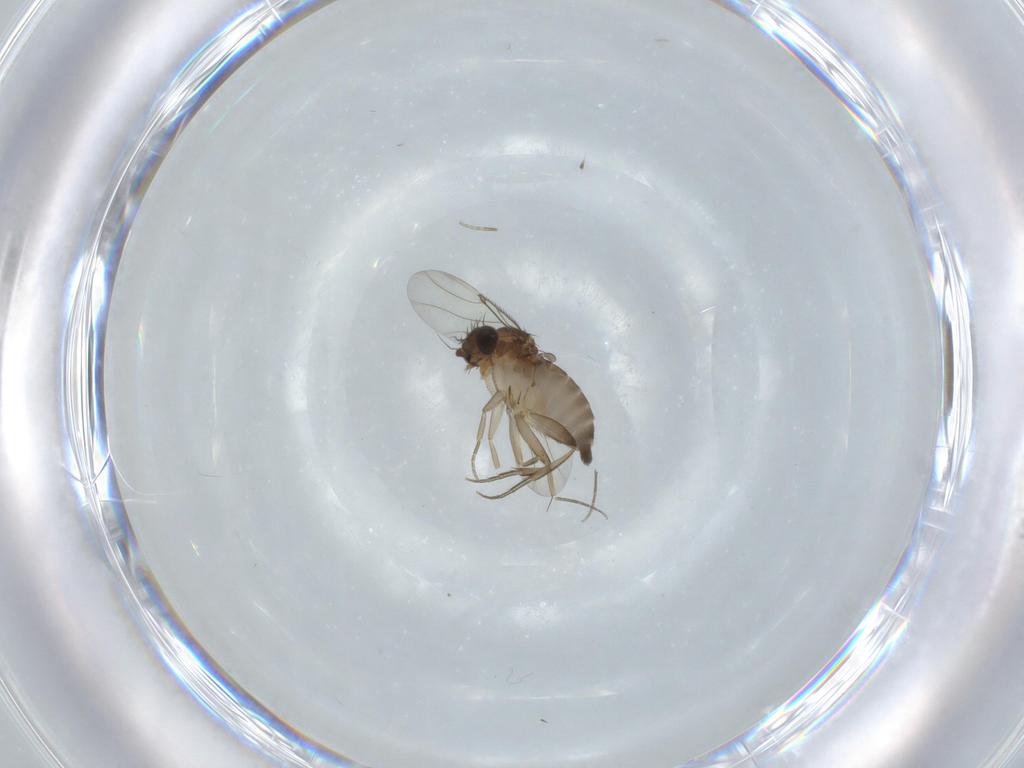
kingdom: Animalia
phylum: Arthropoda
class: Insecta
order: Diptera
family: Phoridae
